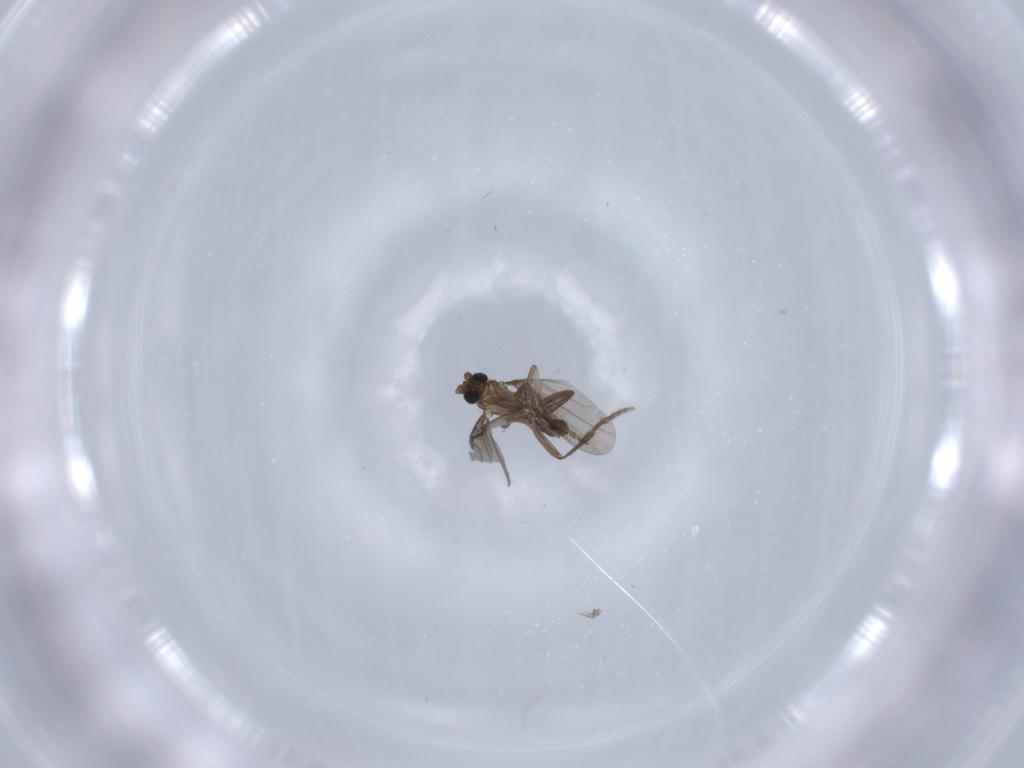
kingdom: Animalia
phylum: Arthropoda
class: Insecta
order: Diptera
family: Phoridae
